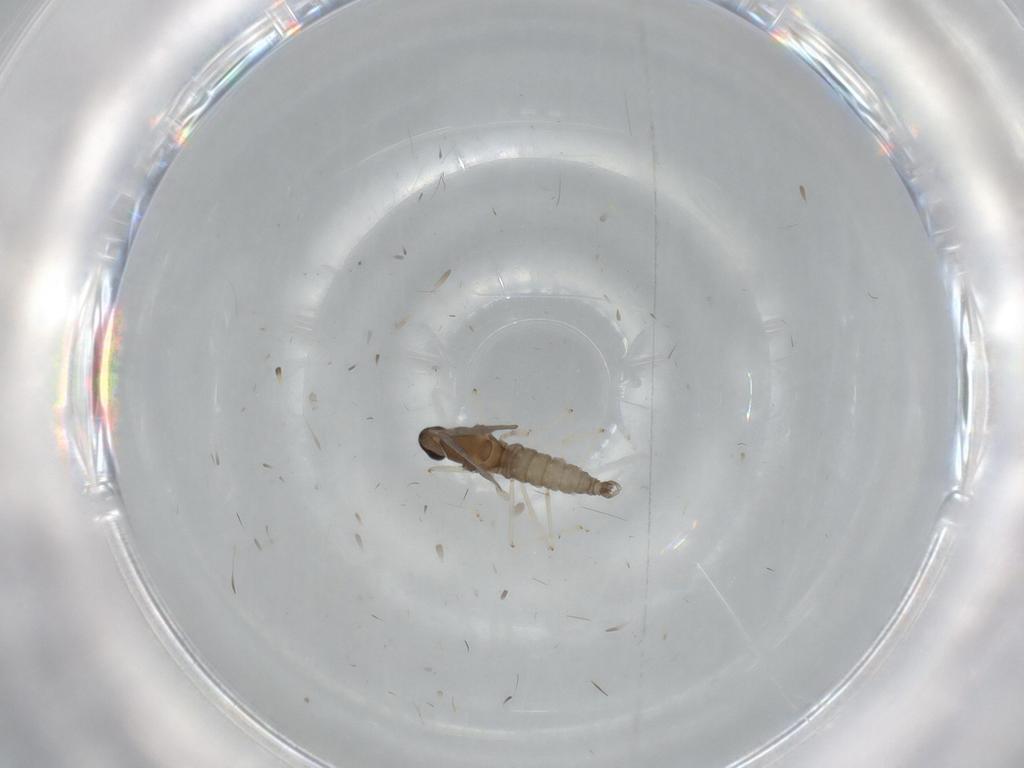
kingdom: Animalia
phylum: Arthropoda
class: Insecta
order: Diptera
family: Cecidomyiidae
